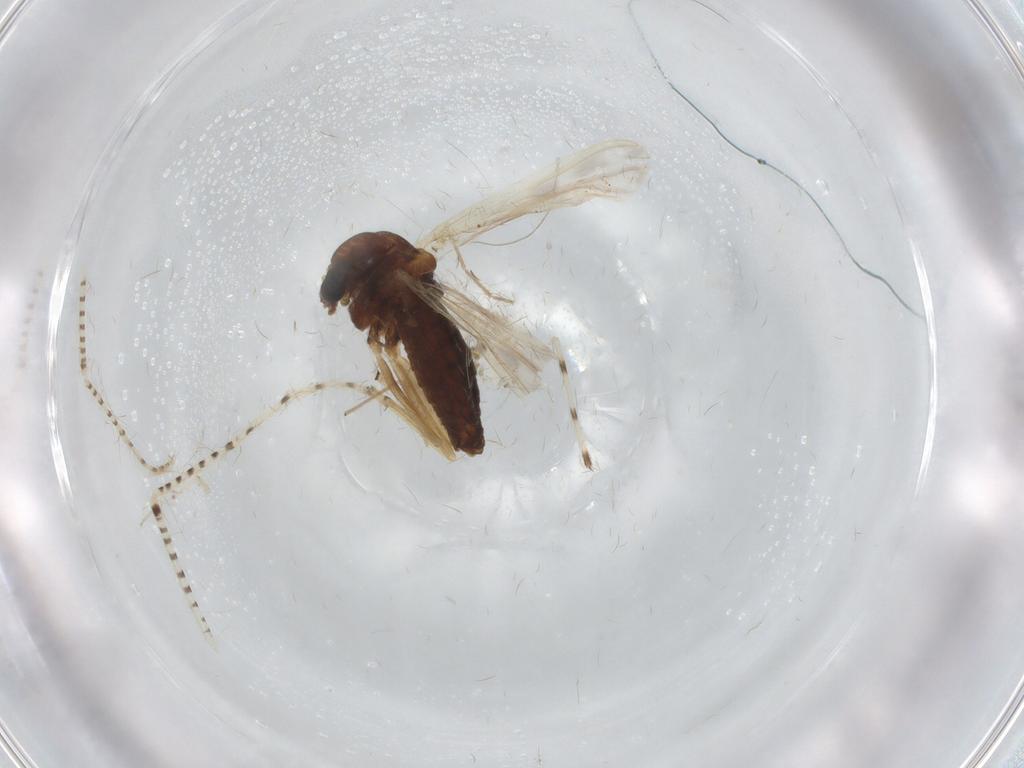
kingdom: Animalia
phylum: Arthropoda
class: Insecta
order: Diptera
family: Chironomidae
